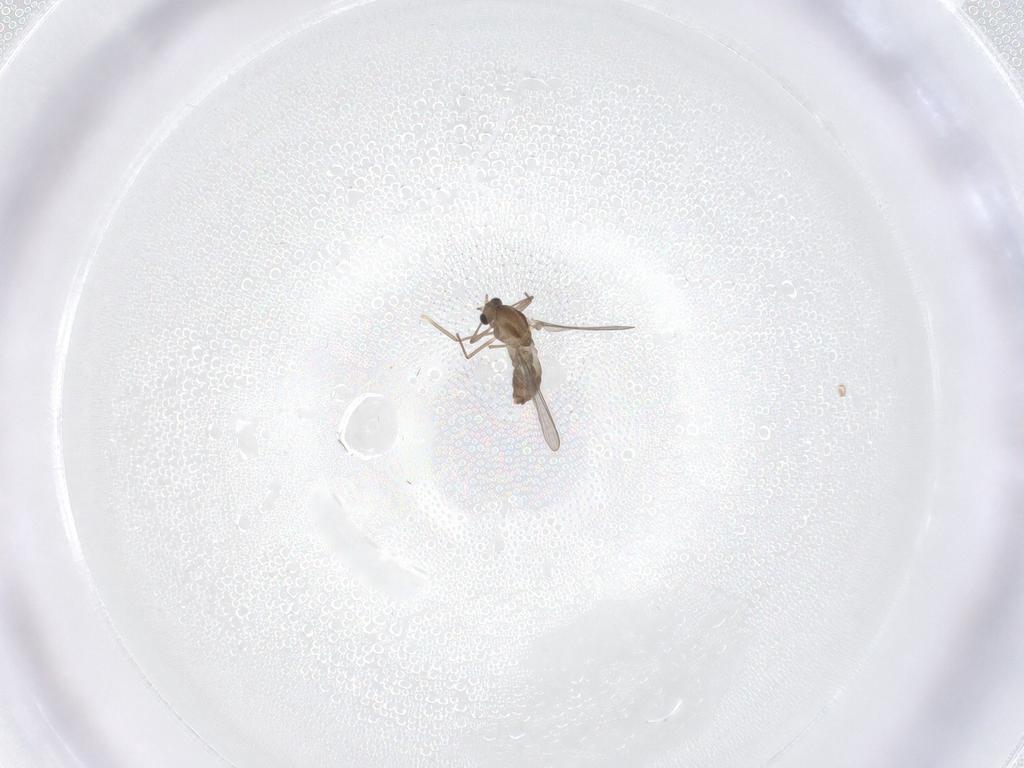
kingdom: Animalia
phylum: Arthropoda
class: Insecta
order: Diptera
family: Chironomidae
